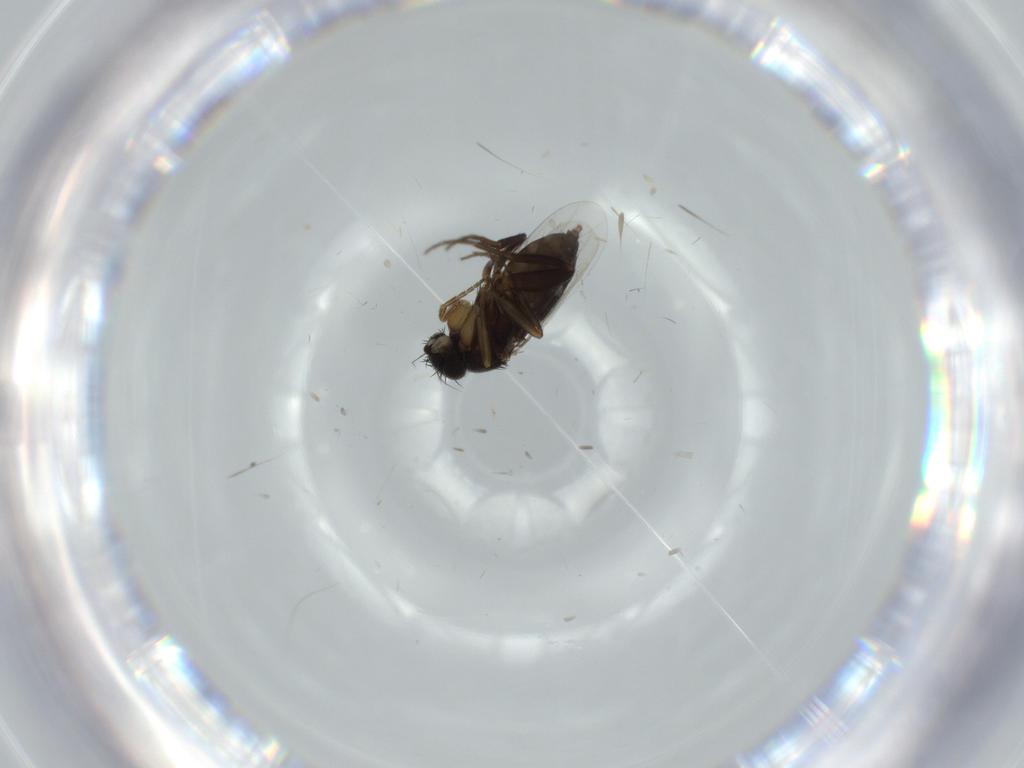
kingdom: Animalia
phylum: Arthropoda
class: Insecta
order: Diptera
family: Phoridae
